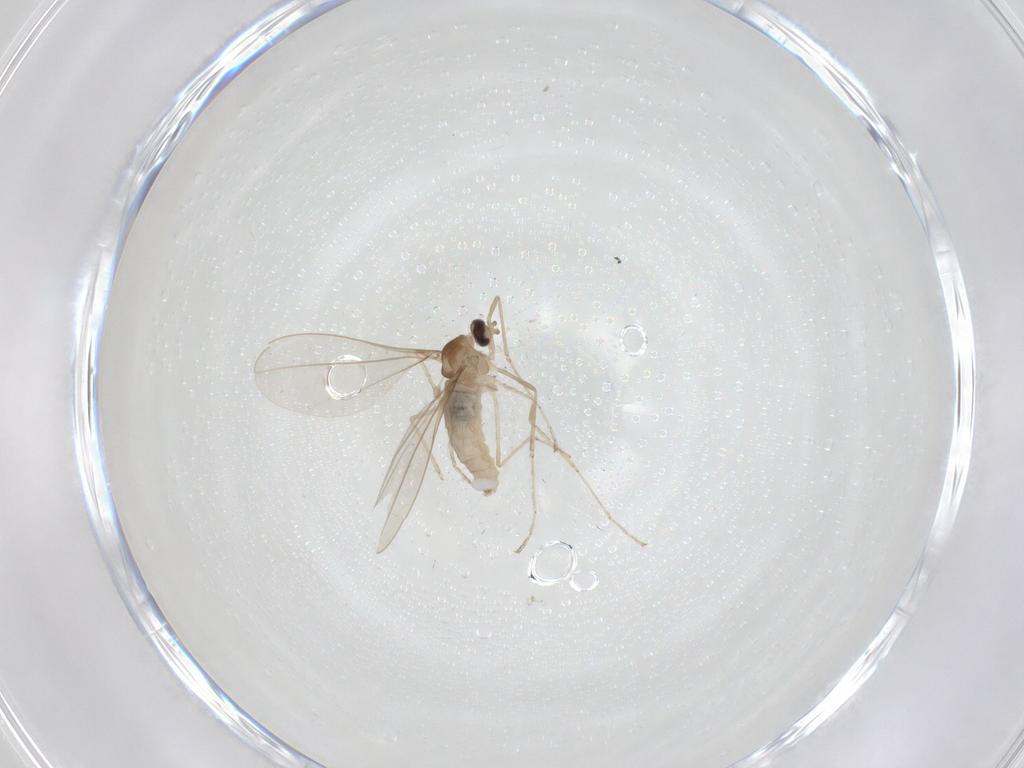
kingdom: Animalia
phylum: Arthropoda
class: Insecta
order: Diptera
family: Cecidomyiidae
